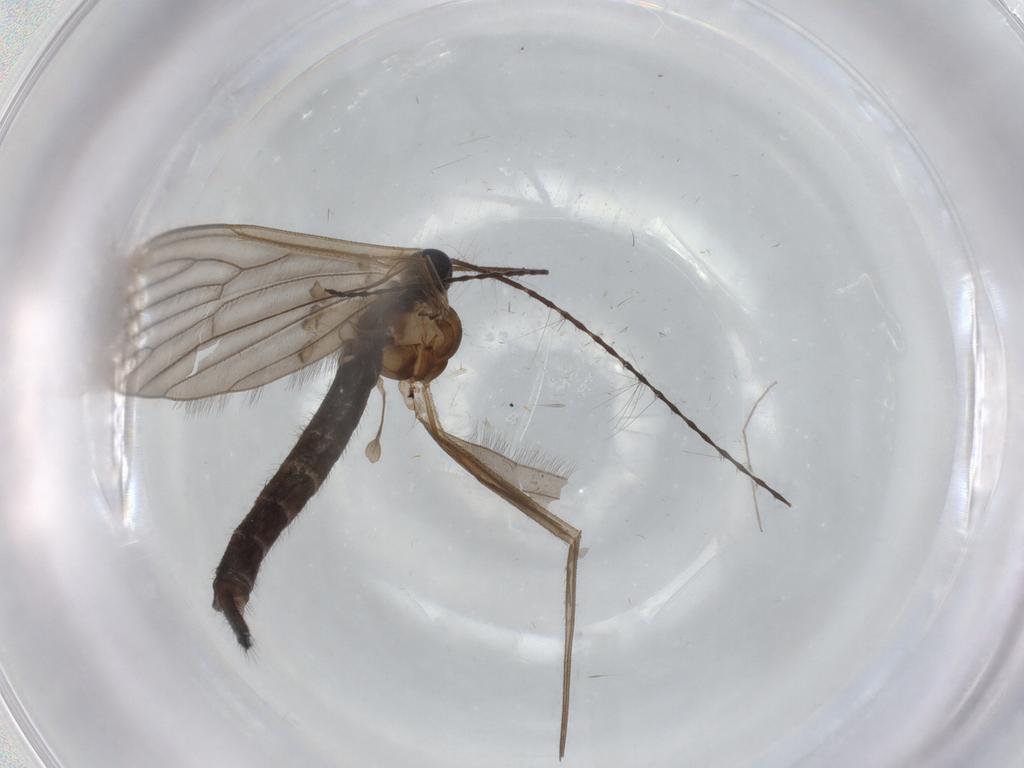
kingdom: Animalia
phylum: Arthropoda
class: Insecta
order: Diptera
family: Limoniidae
